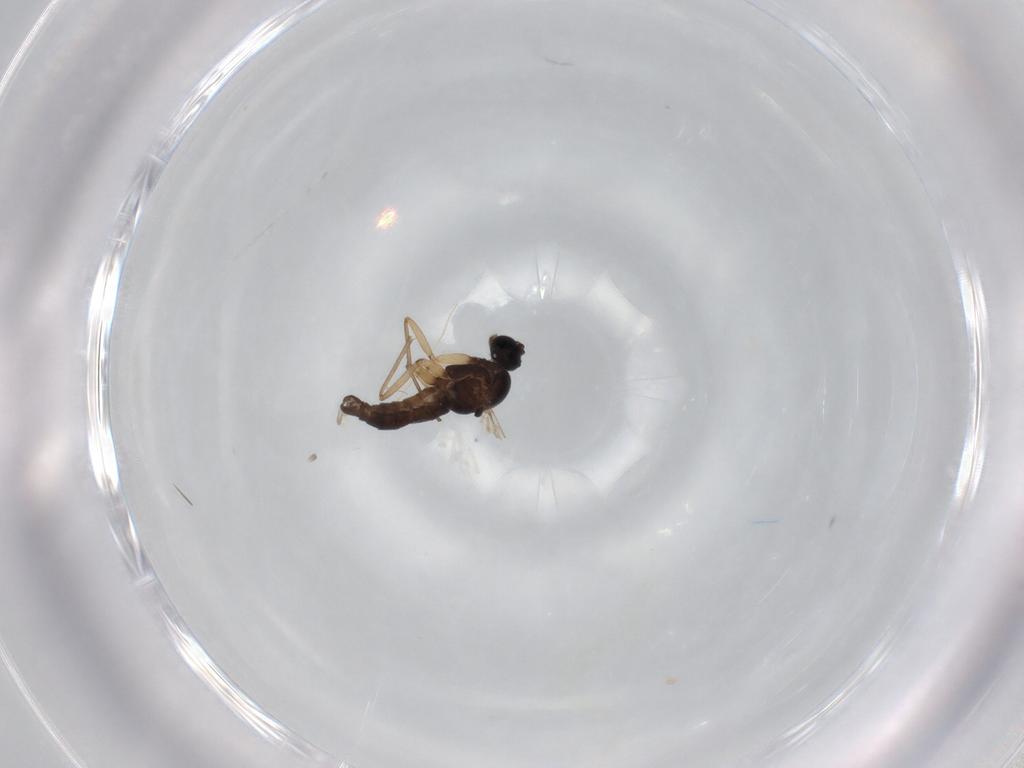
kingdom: Animalia
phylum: Arthropoda
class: Insecta
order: Diptera
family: Sciaridae
